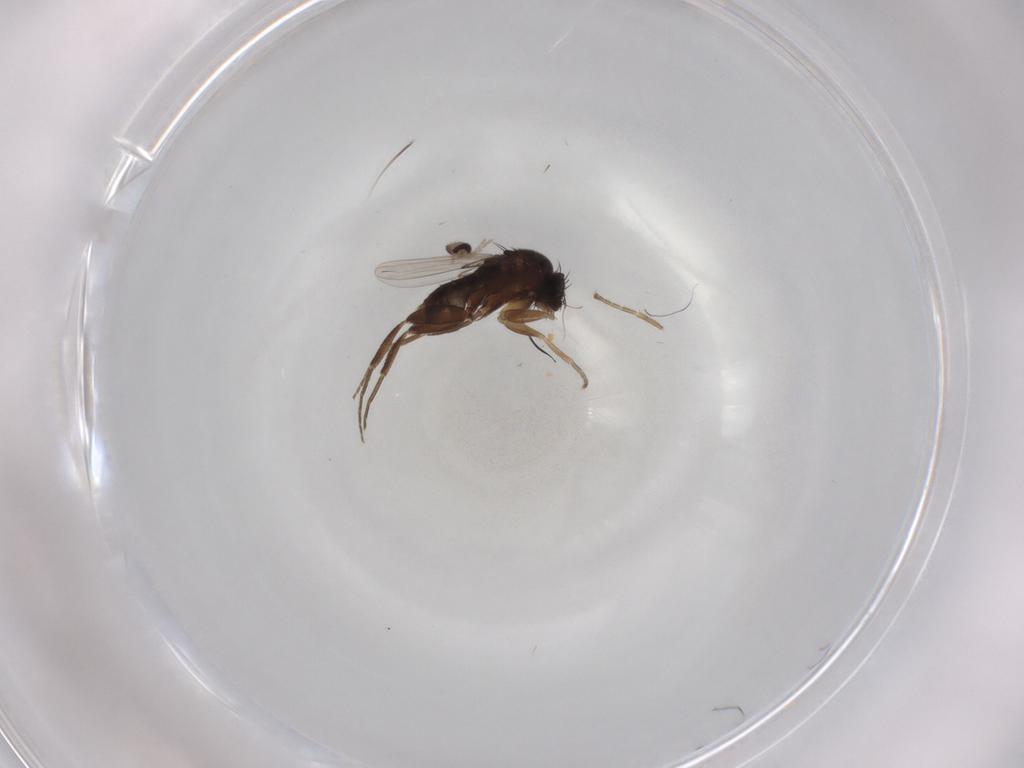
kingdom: Animalia
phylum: Arthropoda
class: Insecta
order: Diptera
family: Phoridae
